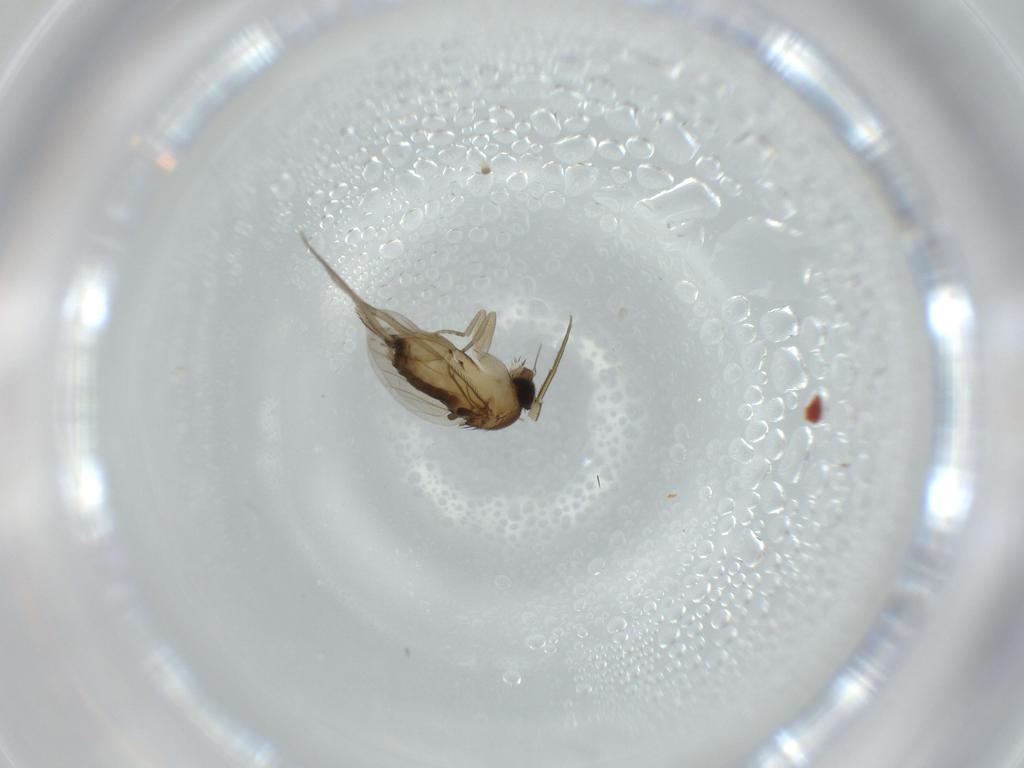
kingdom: Animalia
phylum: Arthropoda
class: Insecta
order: Diptera
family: Phoridae
